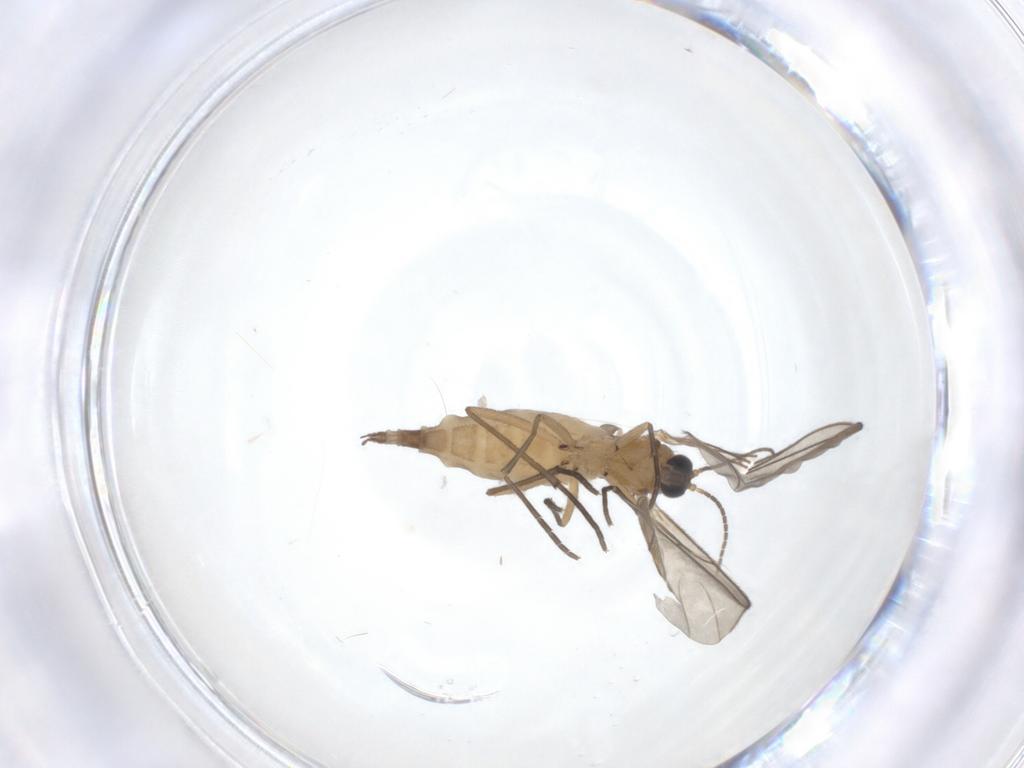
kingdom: Animalia
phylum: Arthropoda
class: Insecta
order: Diptera
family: Sciaridae
